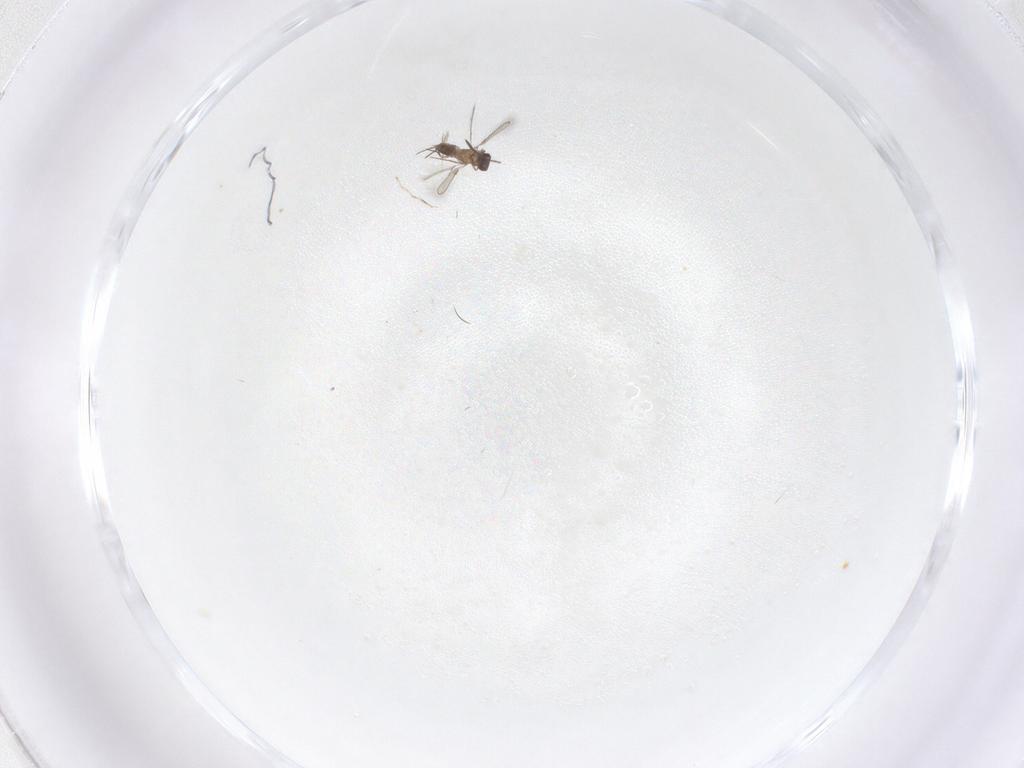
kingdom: Animalia
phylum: Arthropoda
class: Insecta
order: Hymenoptera
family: Mymaridae
